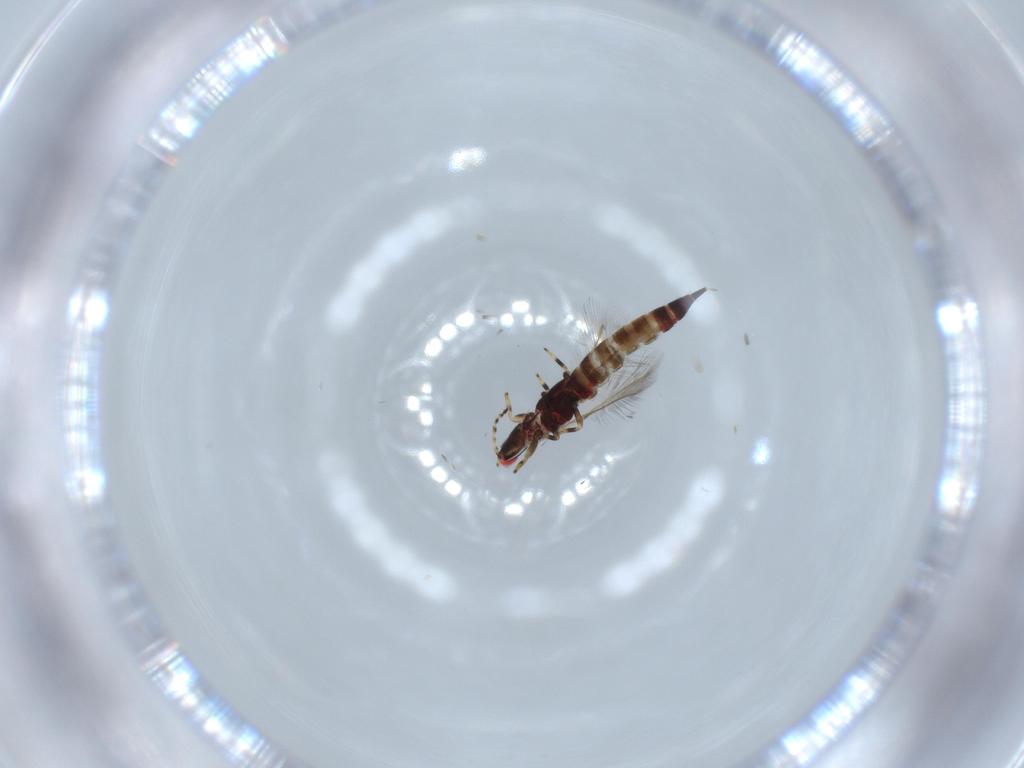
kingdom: Animalia
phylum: Arthropoda
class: Insecta
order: Thysanoptera
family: Phlaeothripidae
